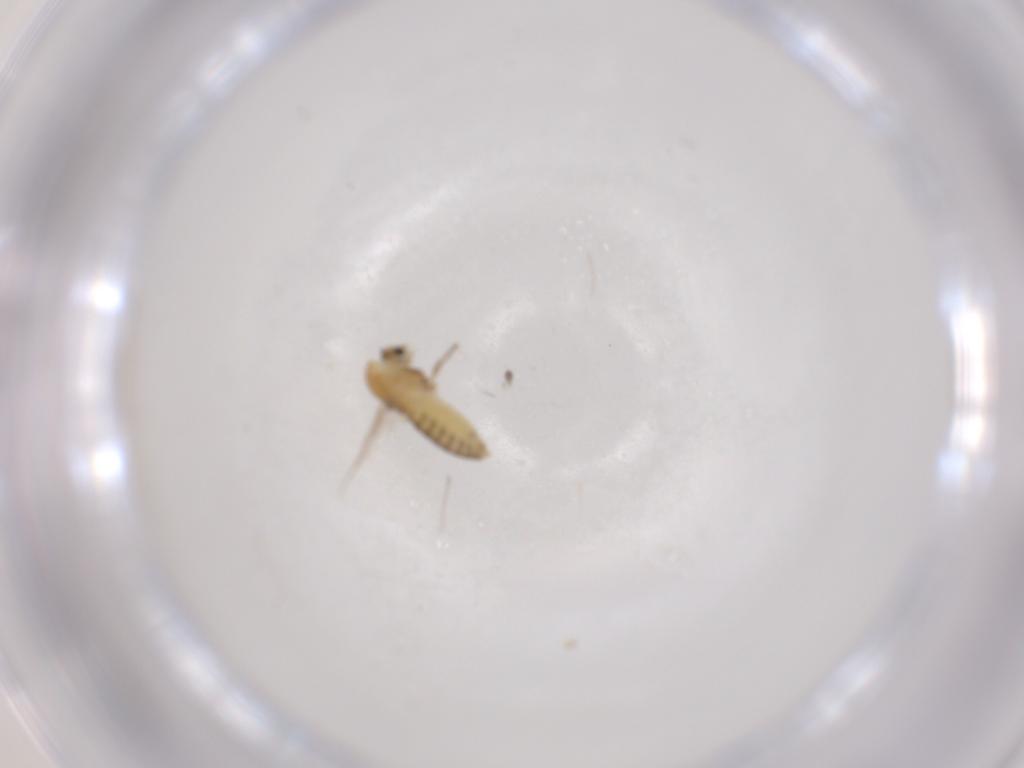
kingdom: Animalia
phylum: Arthropoda
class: Insecta
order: Diptera
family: Chironomidae
